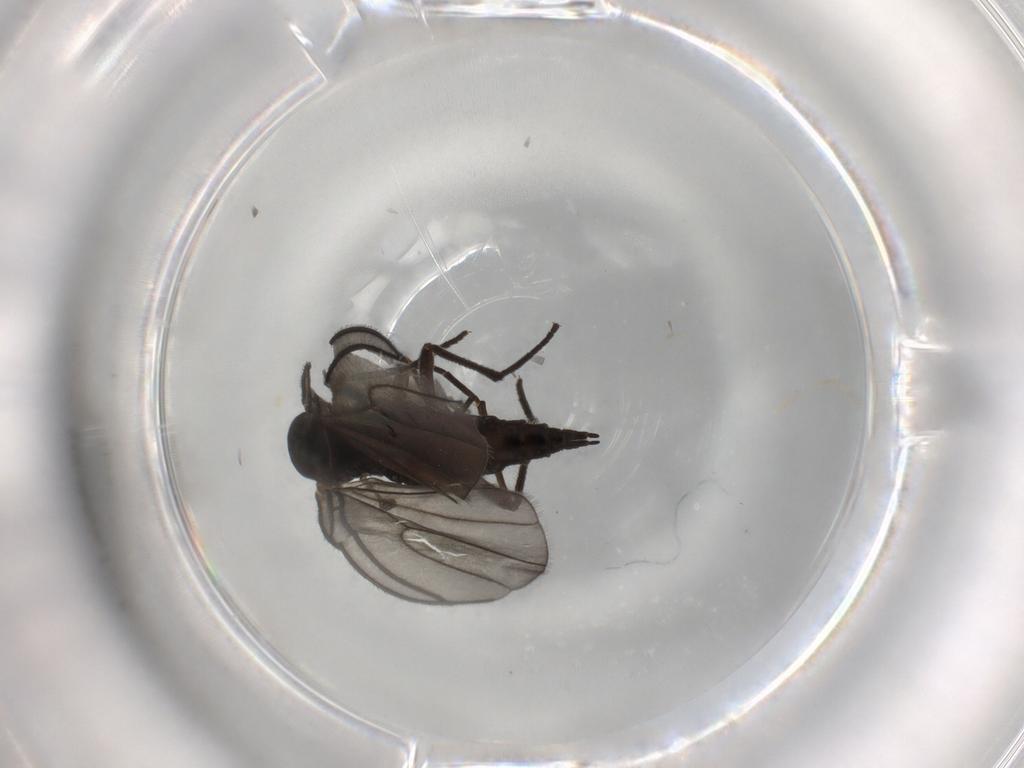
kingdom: Animalia
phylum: Arthropoda
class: Insecta
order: Diptera
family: Sciaridae
